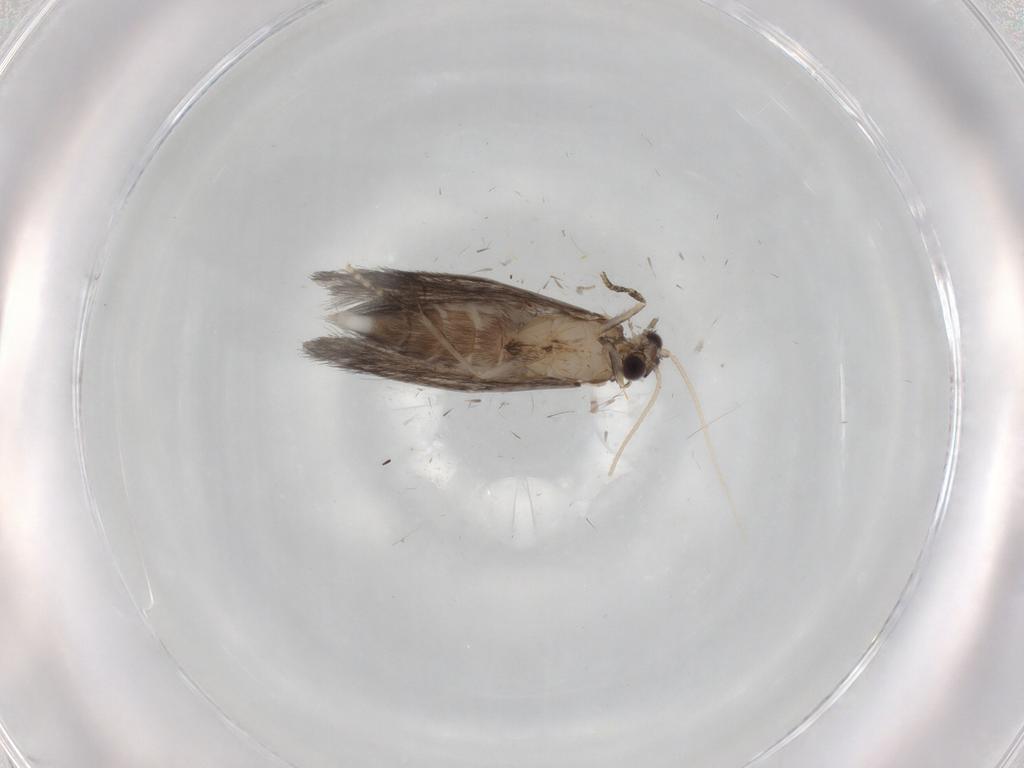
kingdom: Animalia
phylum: Arthropoda
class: Insecta
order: Trichoptera
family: Hydroptilidae
